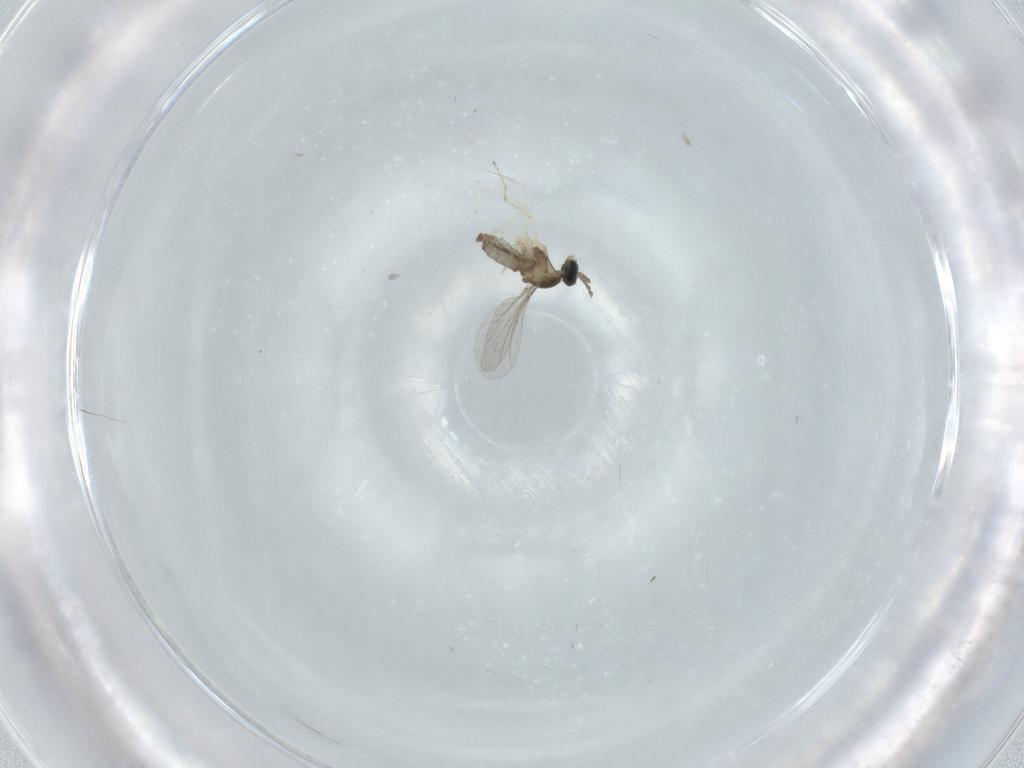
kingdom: Animalia
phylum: Arthropoda
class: Insecta
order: Diptera
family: Cecidomyiidae
